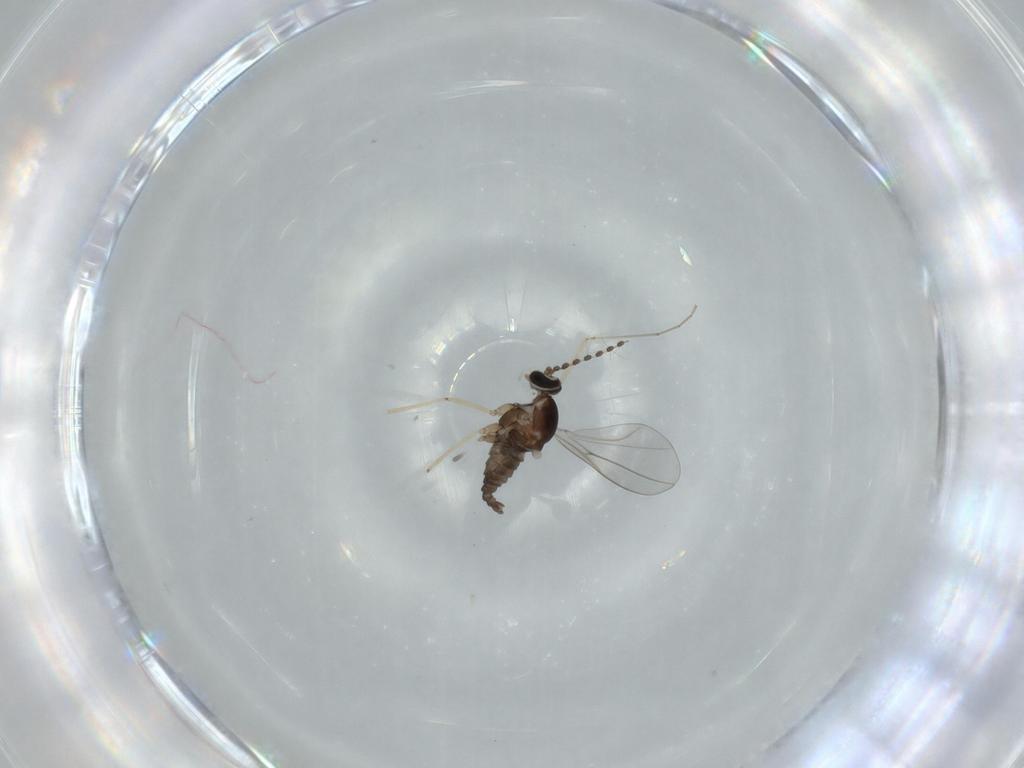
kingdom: Animalia
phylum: Arthropoda
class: Insecta
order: Diptera
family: Cecidomyiidae
